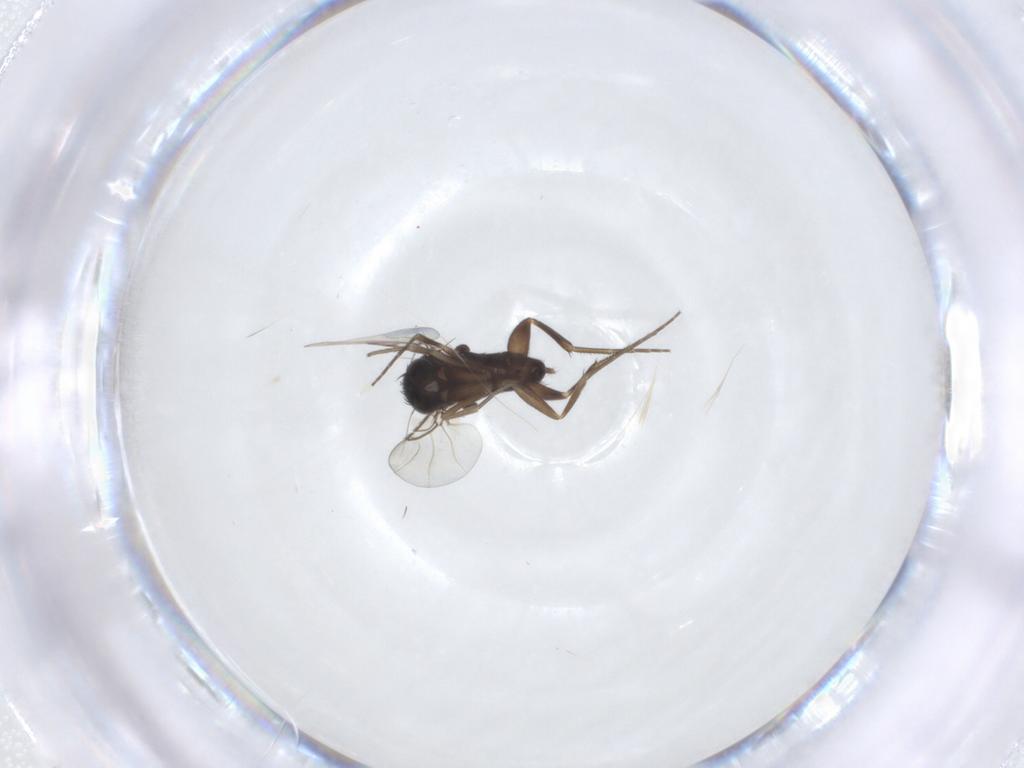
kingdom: Animalia
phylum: Arthropoda
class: Insecta
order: Diptera
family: Phoridae
